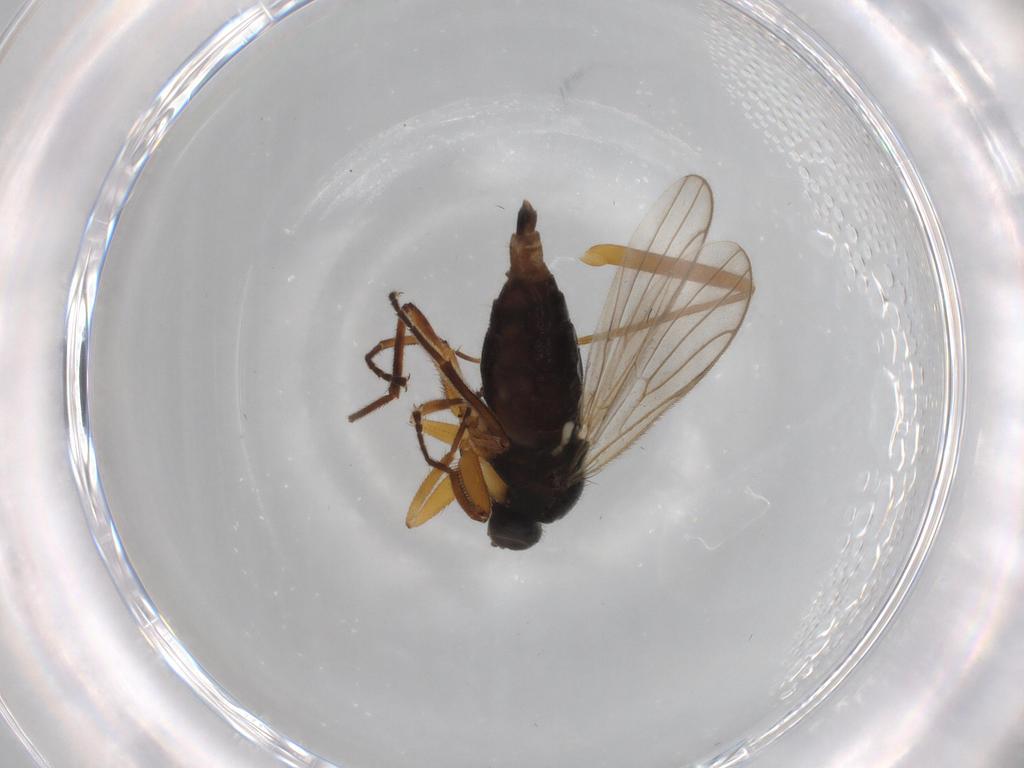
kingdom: Animalia
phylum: Arthropoda
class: Insecta
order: Diptera
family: Hybotidae
